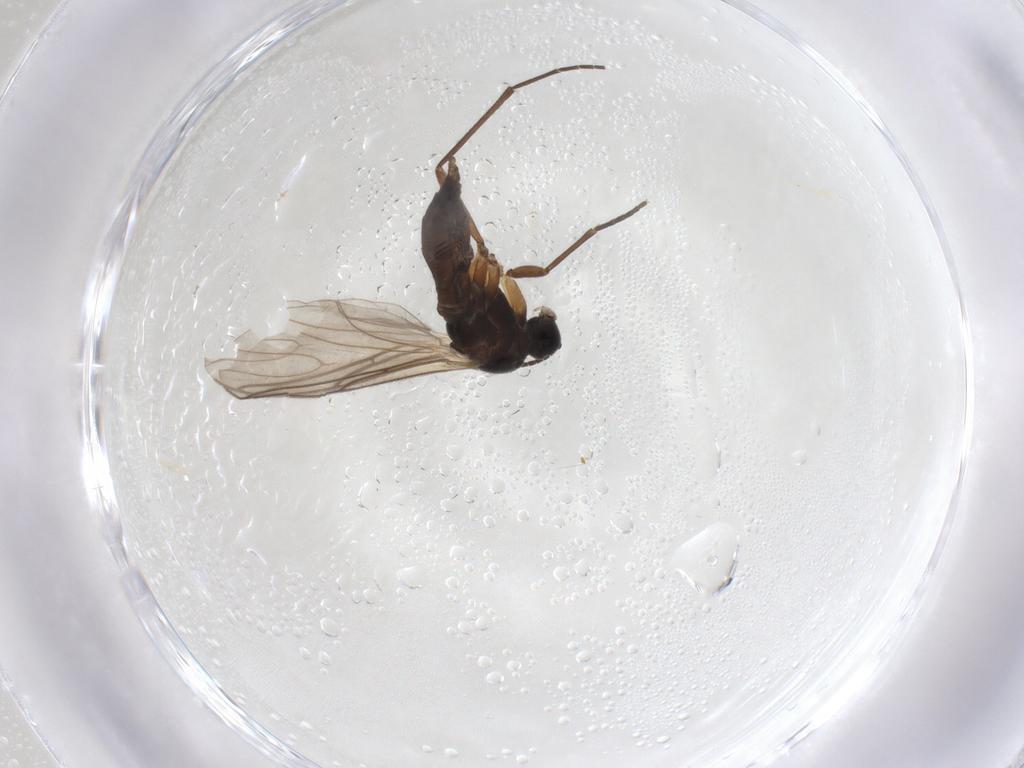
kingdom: Animalia
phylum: Arthropoda
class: Insecta
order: Diptera
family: Sciaridae
